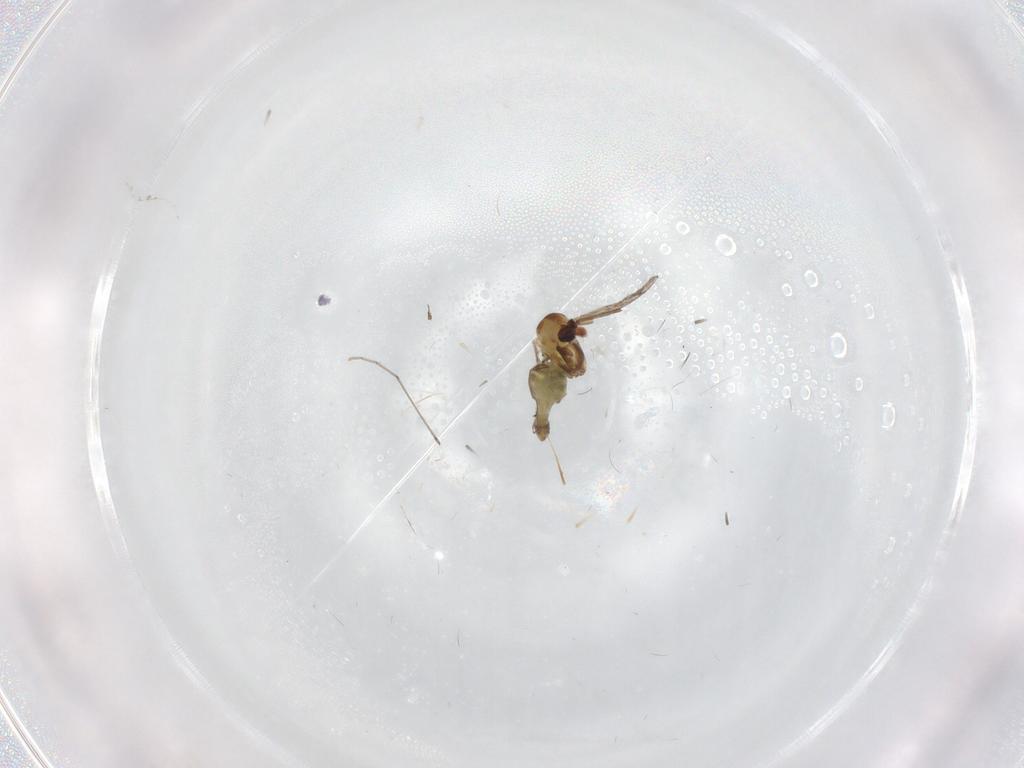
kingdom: Animalia
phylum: Arthropoda
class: Insecta
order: Diptera
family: Chironomidae
